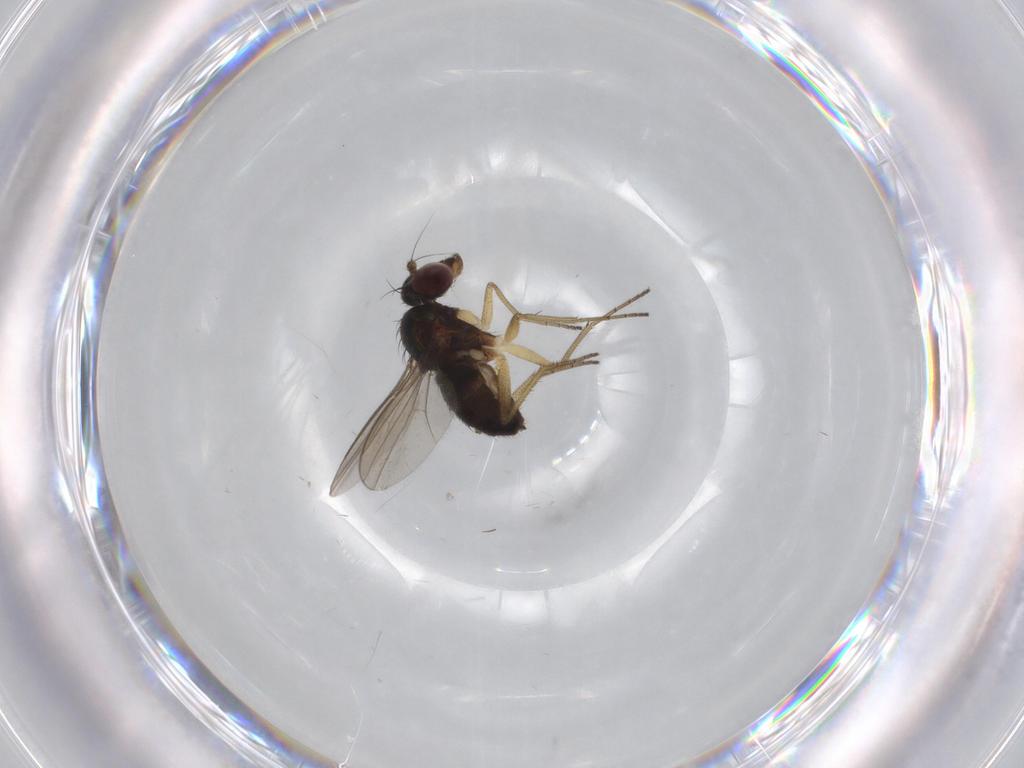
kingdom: Animalia
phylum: Arthropoda
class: Insecta
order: Diptera
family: Dolichopodidae
